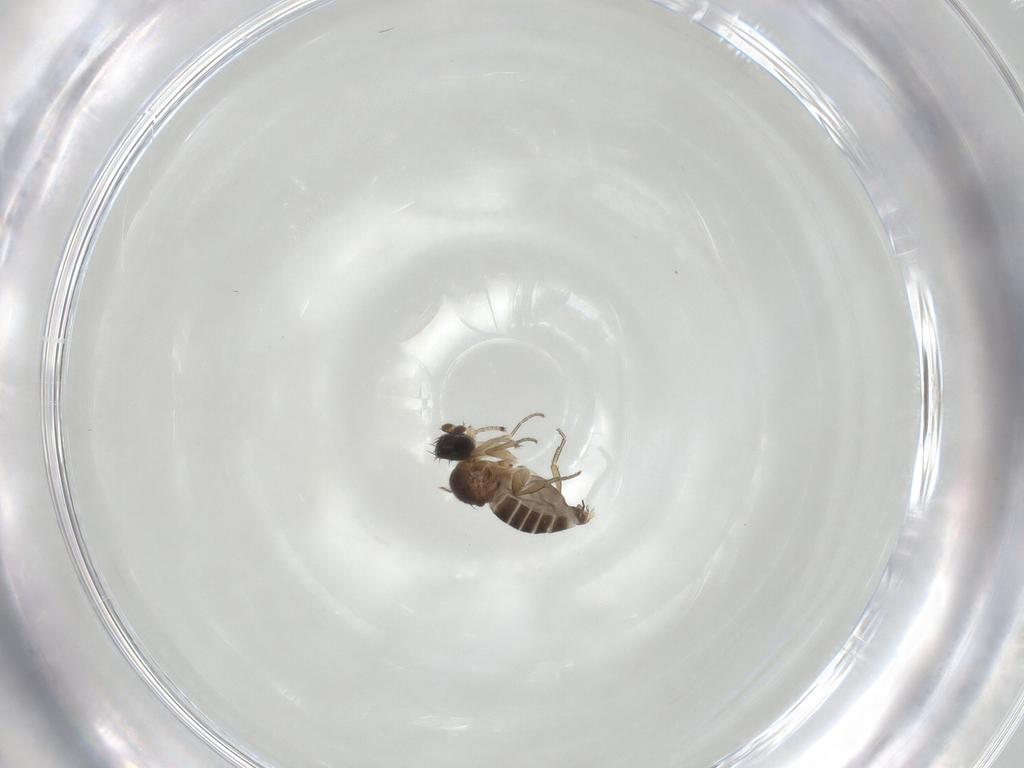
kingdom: Animalia
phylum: Arthropoda
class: Insecta
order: Diptera
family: Phoridae
